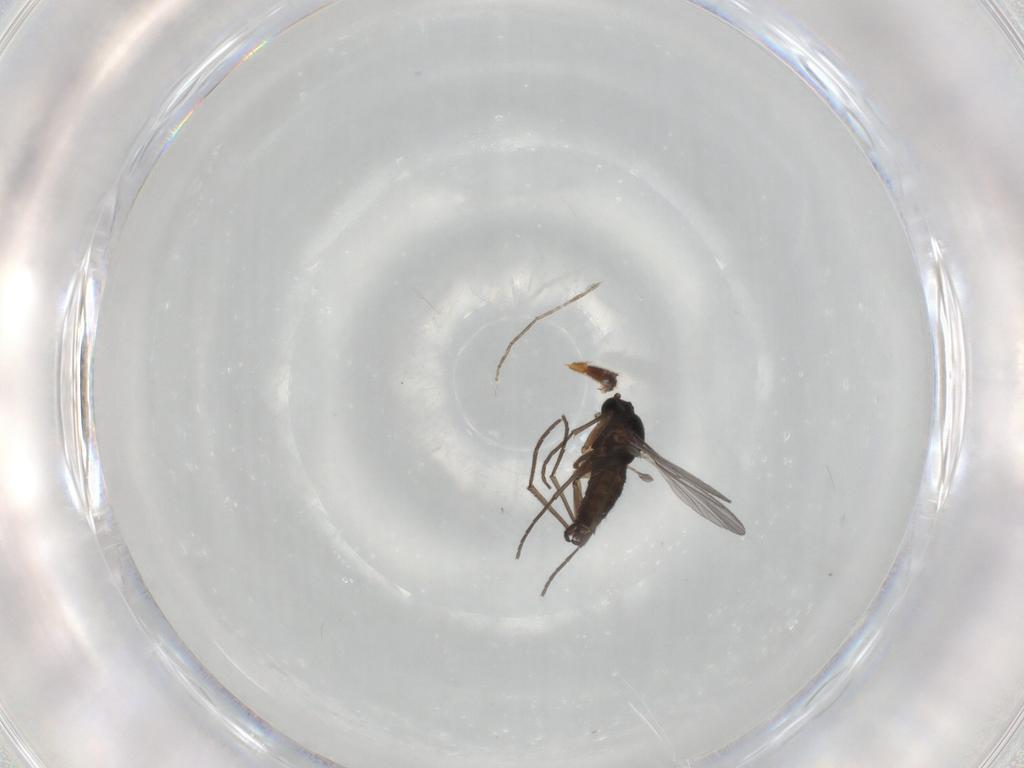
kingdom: Animalia
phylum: Arthropoda
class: Insecta
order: Diptera
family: Sciaridae
